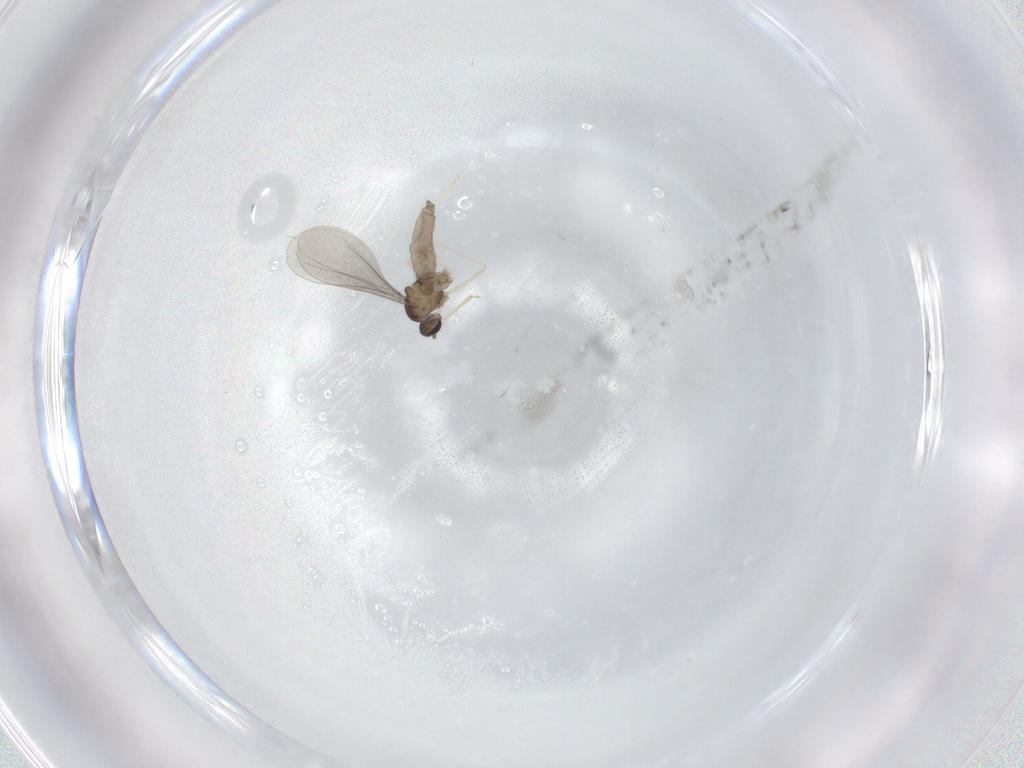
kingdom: Animalia
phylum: Arthropoda
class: Insecta
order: Diptera
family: Ceratopogonidae
